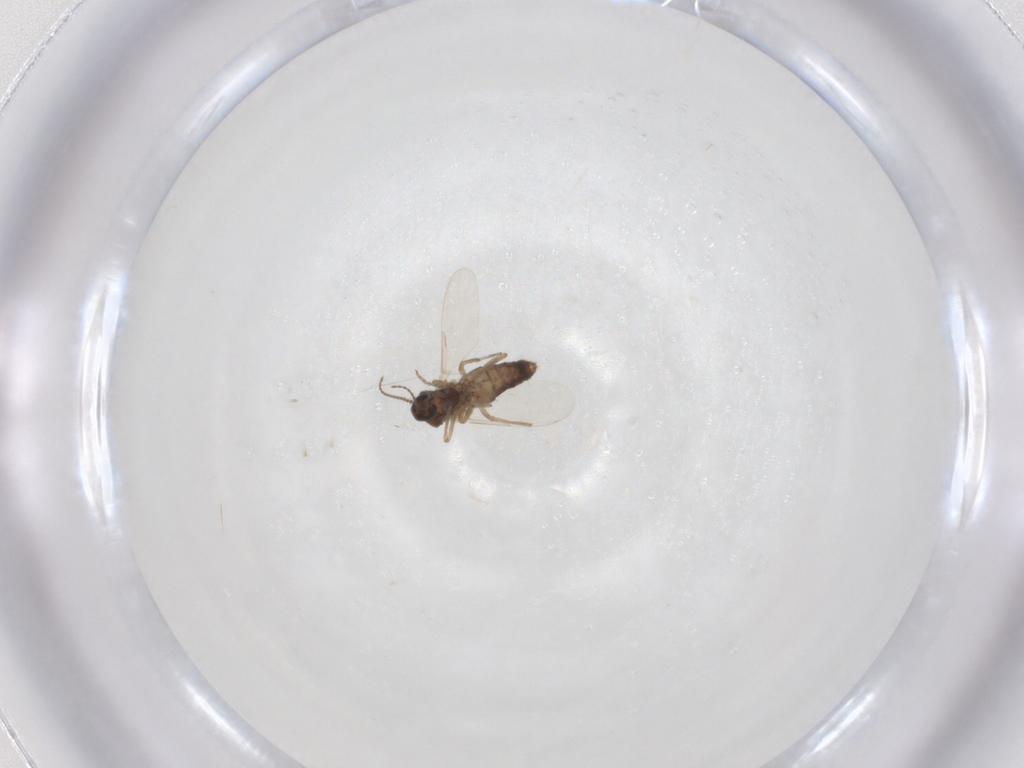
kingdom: Animalia
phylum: Arthropoda
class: Insecta
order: Diptera
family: Ceratopogonidae
